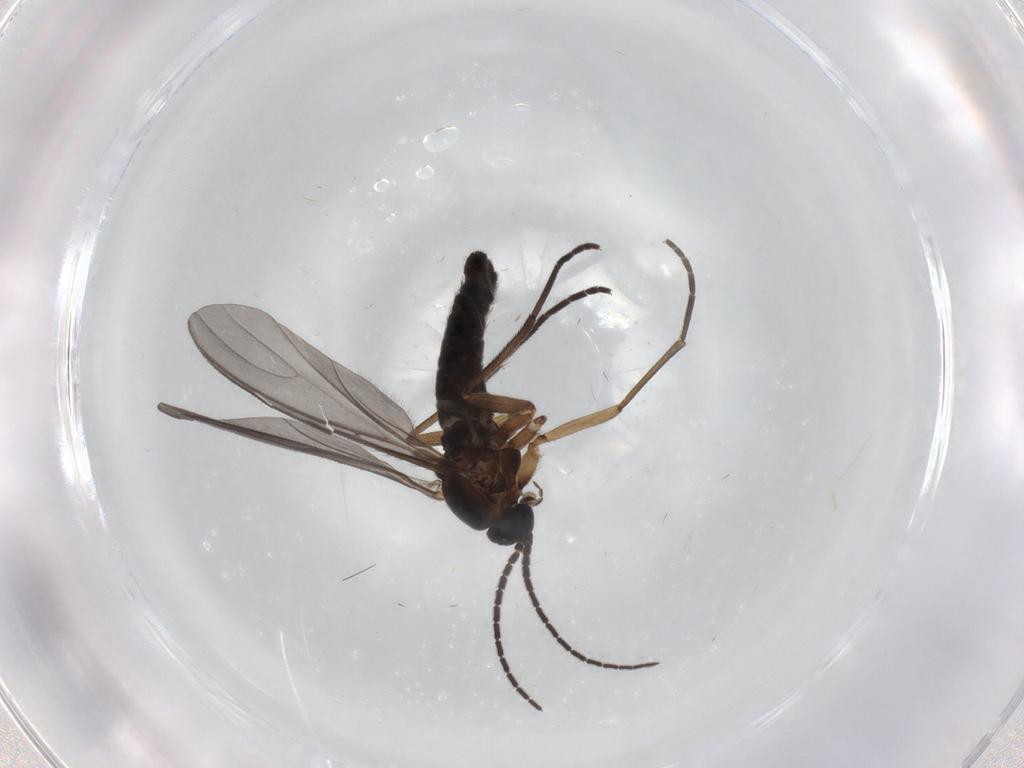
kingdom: Animalia
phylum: Arthropoda
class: Insecta
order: Diptera
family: Sciaridae
